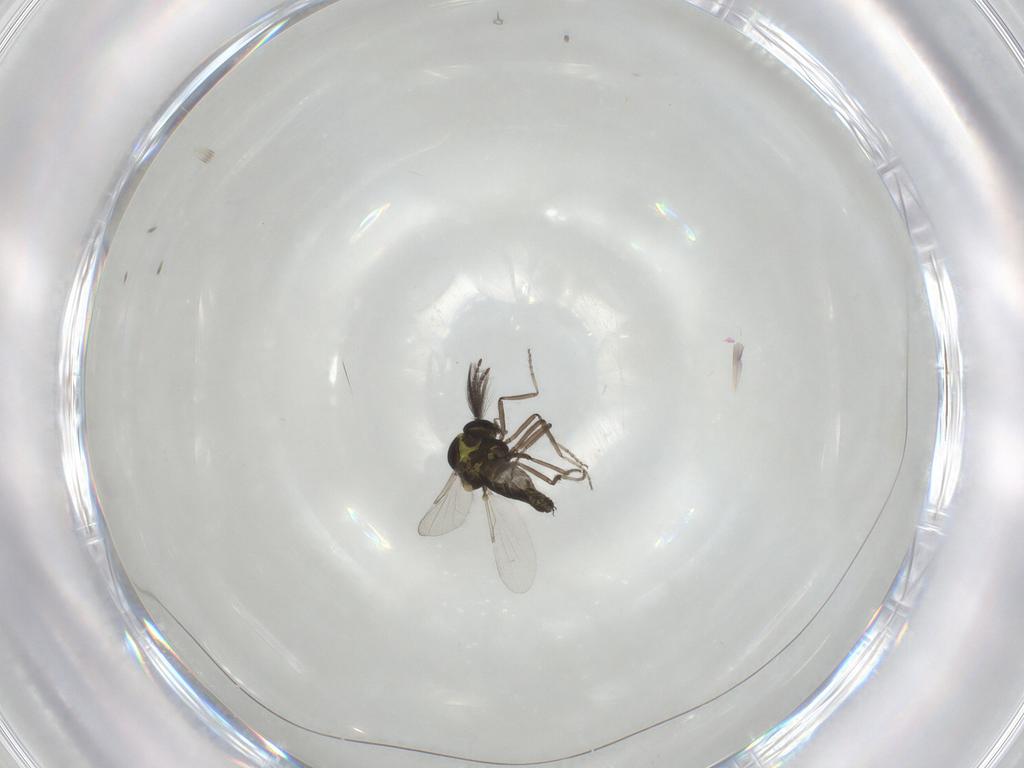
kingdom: Animalia
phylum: Arthropoda
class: Insecta
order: Diptera
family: Ceratopogonidae
